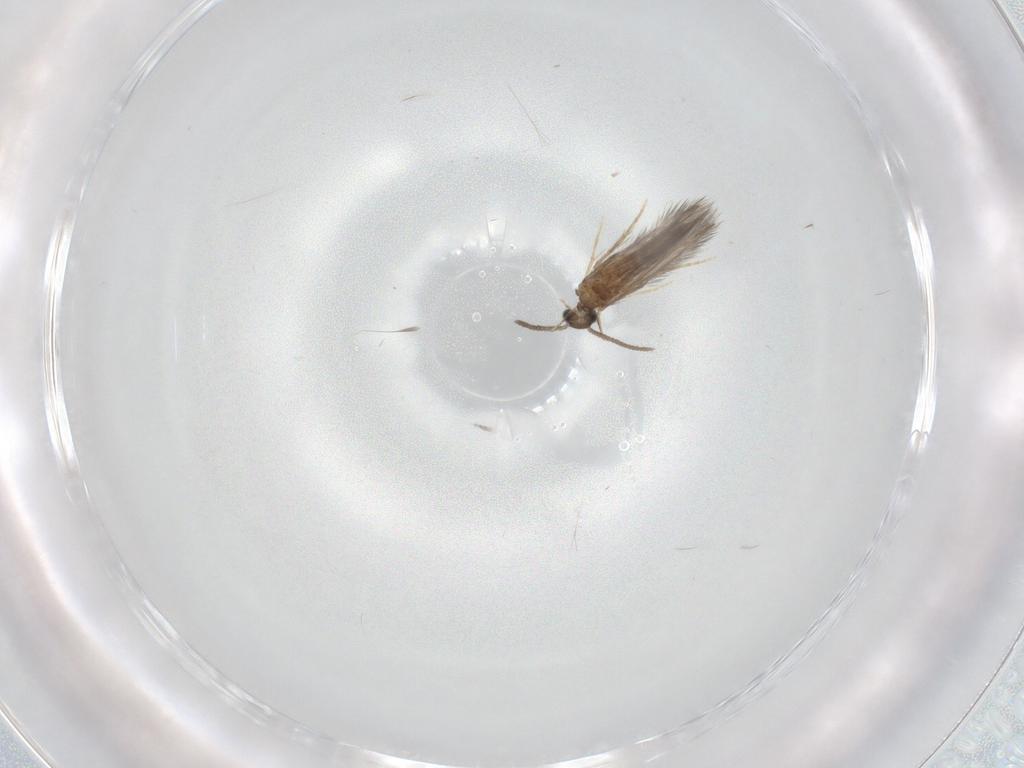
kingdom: Animalia
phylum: Arthropoda
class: Insecta
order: Trichoptera
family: Hydroptilidae
